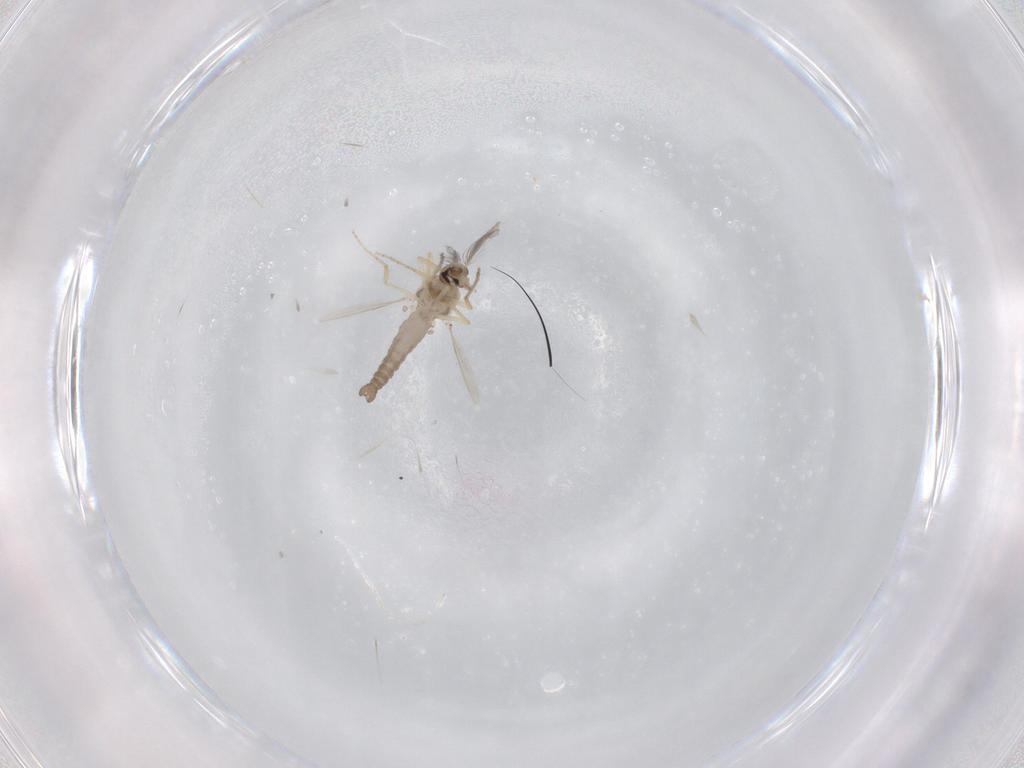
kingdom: Animalia
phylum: Arthropoda
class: Insecta
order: Diptera
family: Ceratopogonidae
